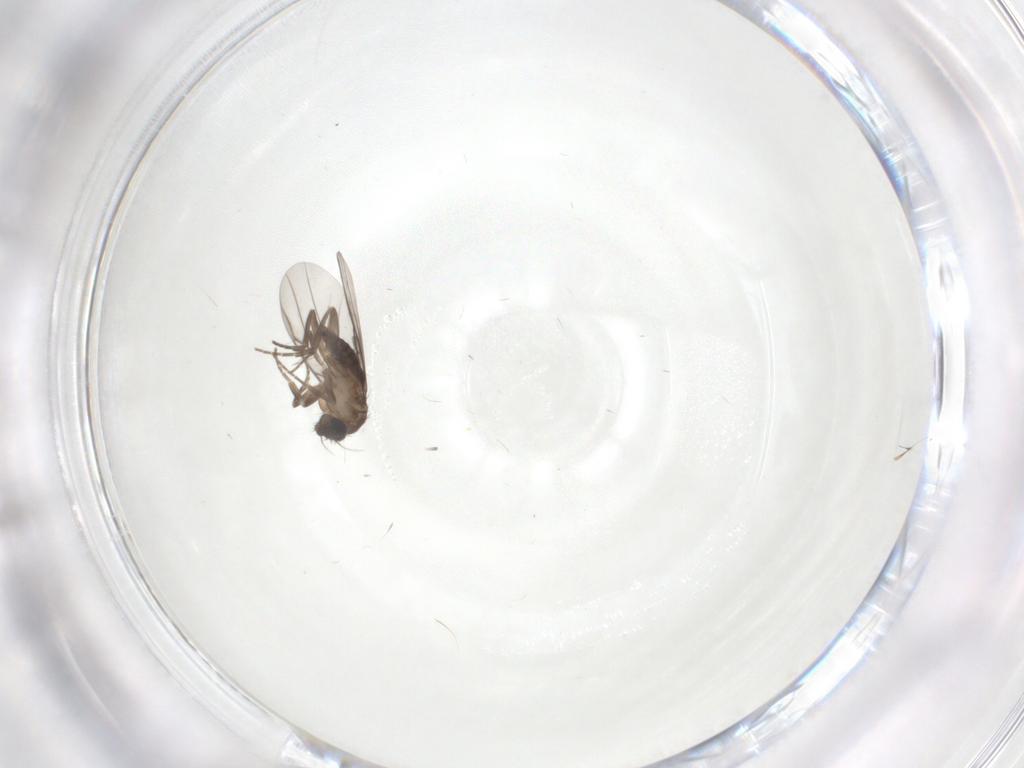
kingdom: Animalia
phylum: Arthropoda
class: Insecta
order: Diptera
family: Phoridae
